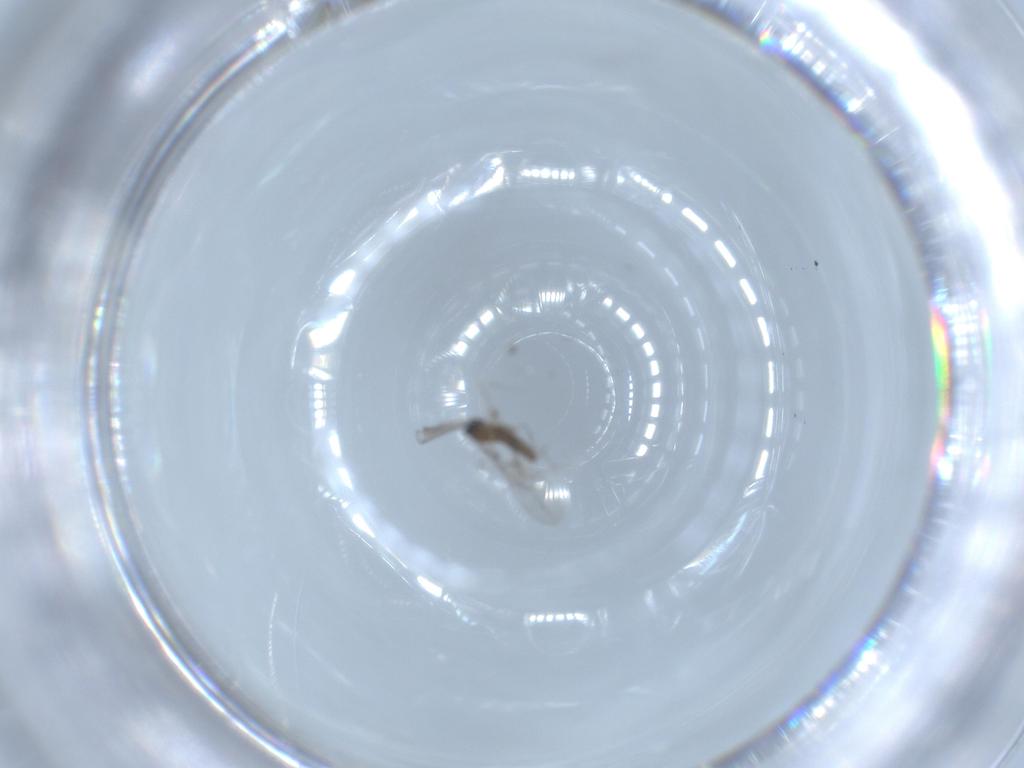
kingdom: Animalia
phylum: Arthropoda
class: Insecta
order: Diptera
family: Cecidomyiidae
